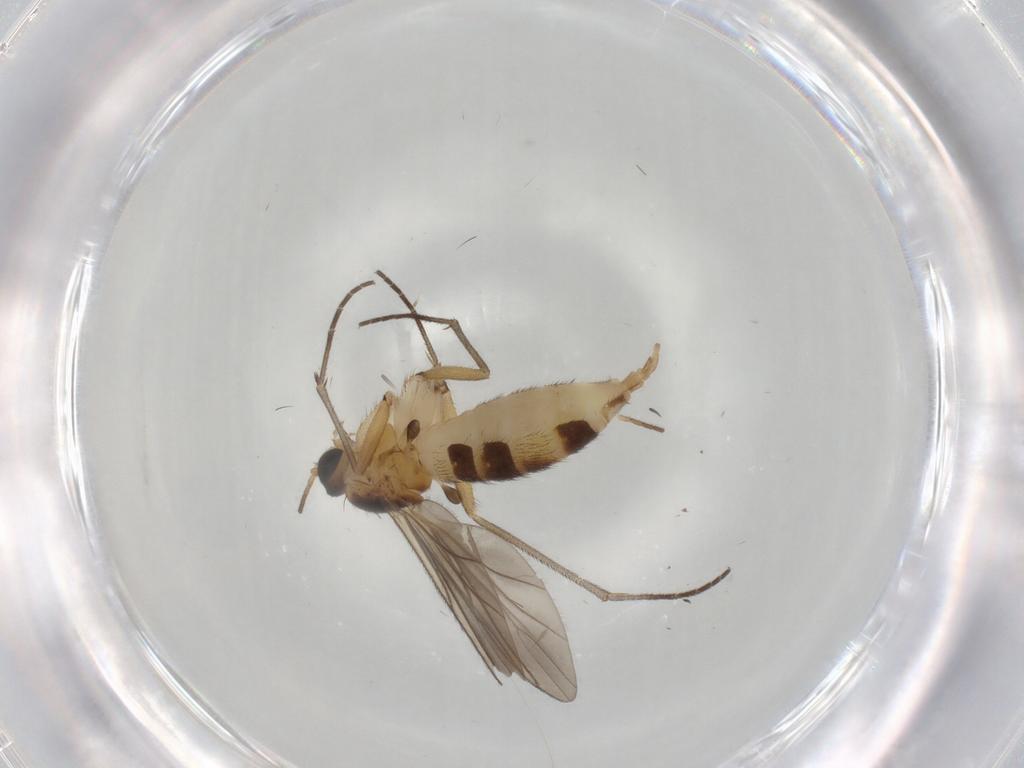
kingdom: Animalia
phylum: Arthropoda
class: Insecta
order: Diptera
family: Sciaridae
